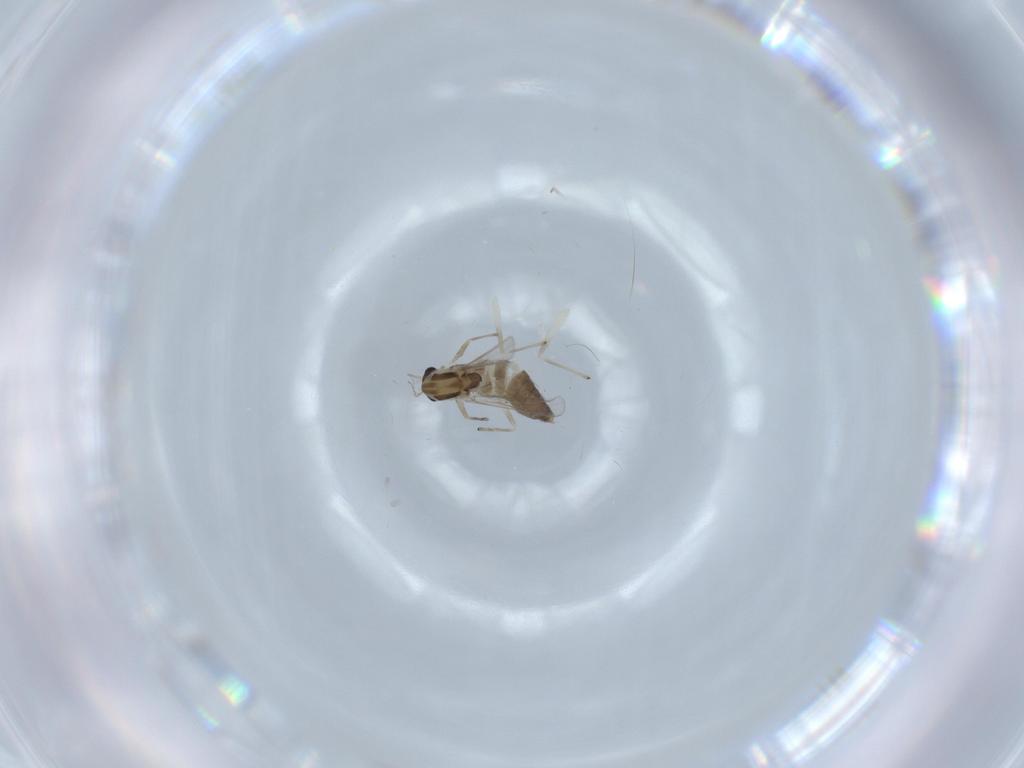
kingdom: Animalia
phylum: Arthropoda
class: Insecta
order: Diptera
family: Chironomidae
